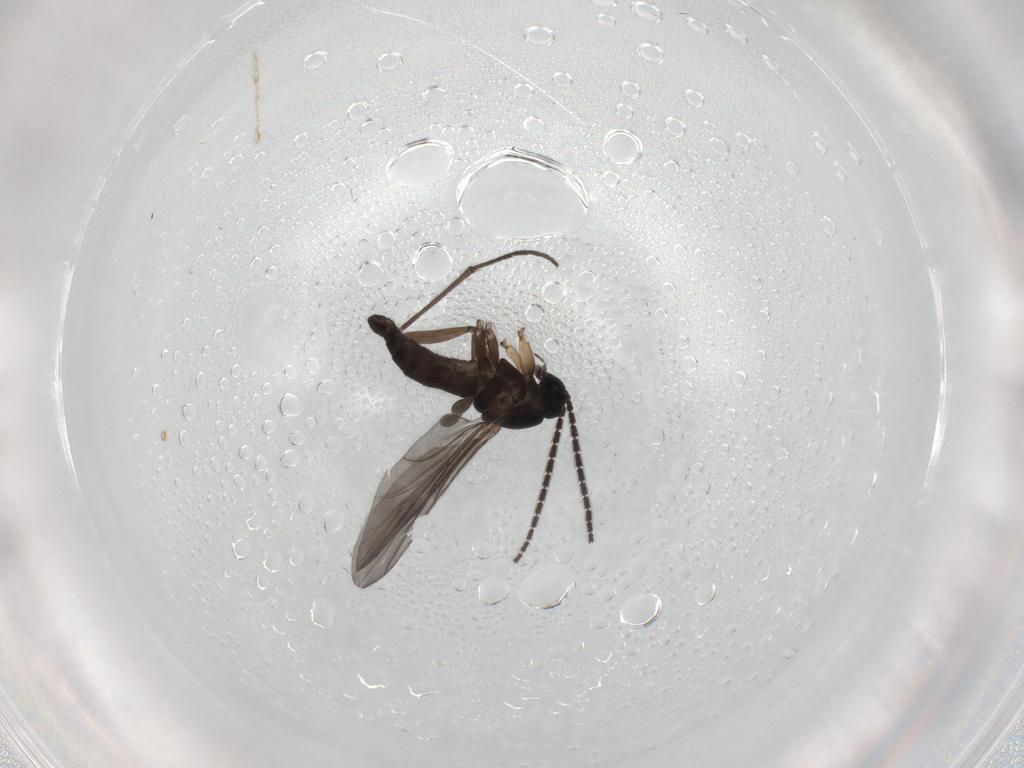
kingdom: Animalia
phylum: Arthropoda
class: Insecta
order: Diptera
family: Sciaridae
